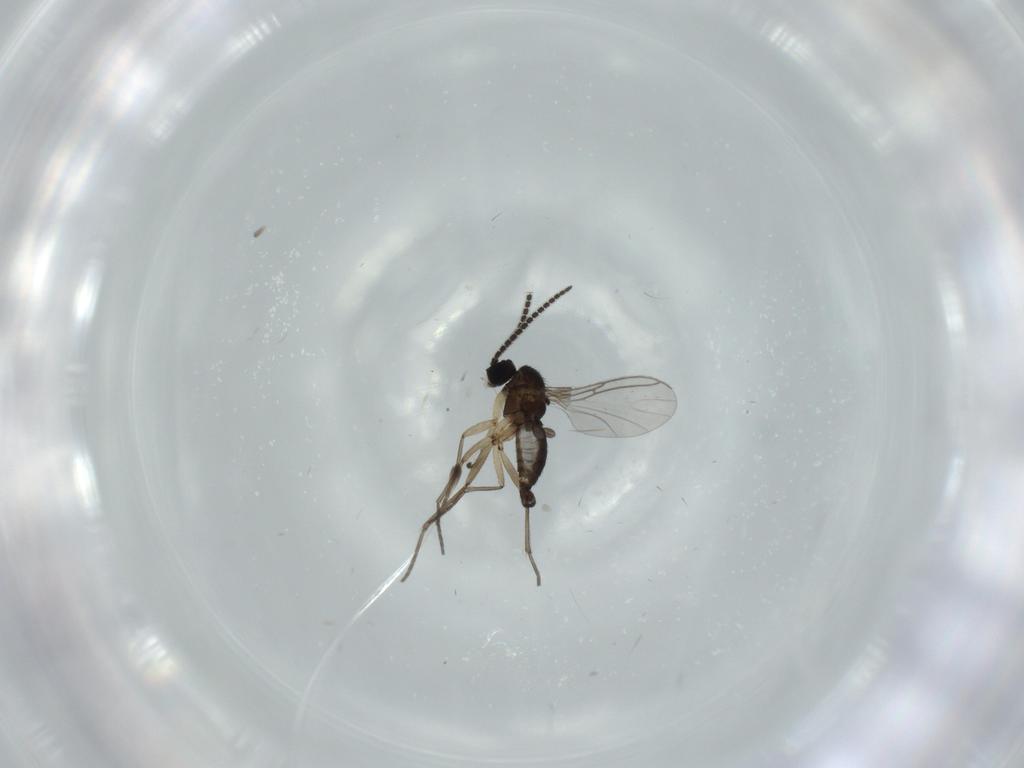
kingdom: Animalia
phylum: Arthropoda
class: Insecta
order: Diptera
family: Sciaridae
